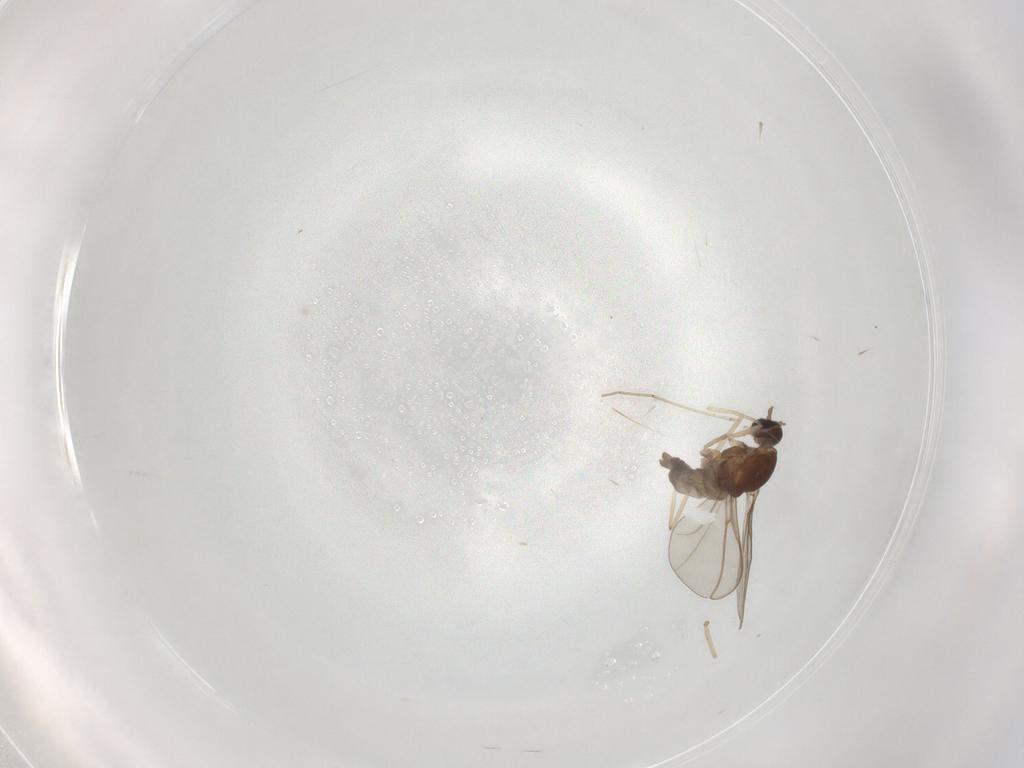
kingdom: Animalia
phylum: Arthropoda
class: Insecta
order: Diptera
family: Cecidomyiidae
